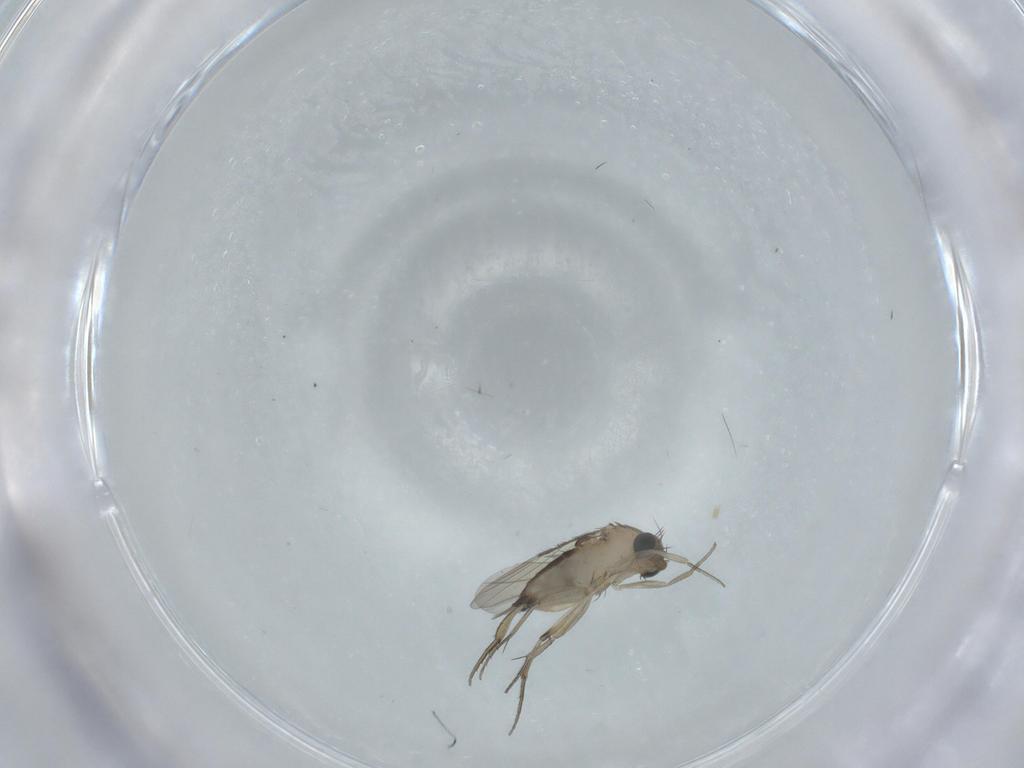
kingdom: Animalia
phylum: Arthropoda
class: Insecta
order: Diptera
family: Phoridae
